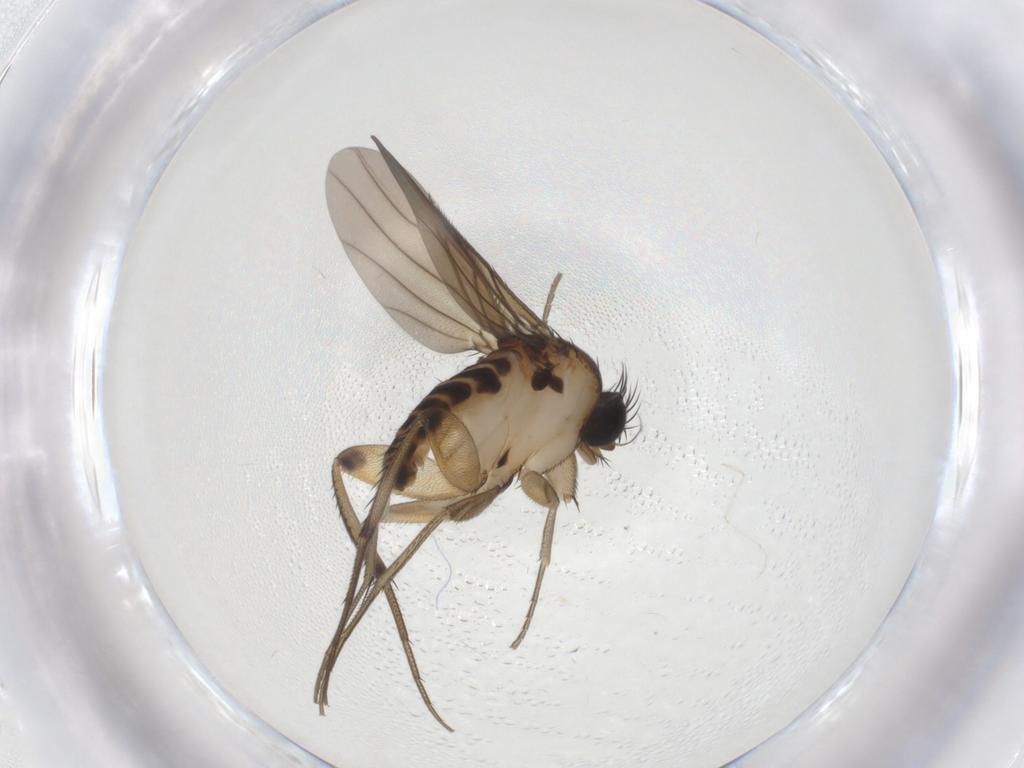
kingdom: Animalia
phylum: Arthropoda
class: Insecta
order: Diptera
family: Phoridae
